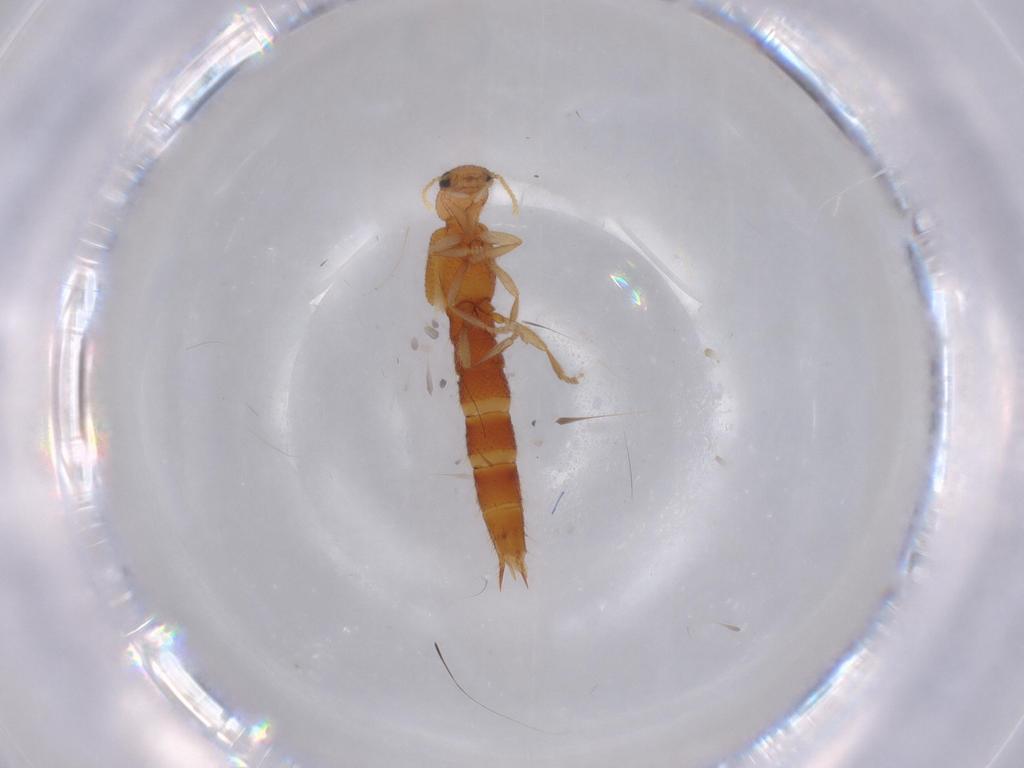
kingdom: Animalia
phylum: Arthropoda
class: Insecta
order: Coleoptera
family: Staphylinidae
